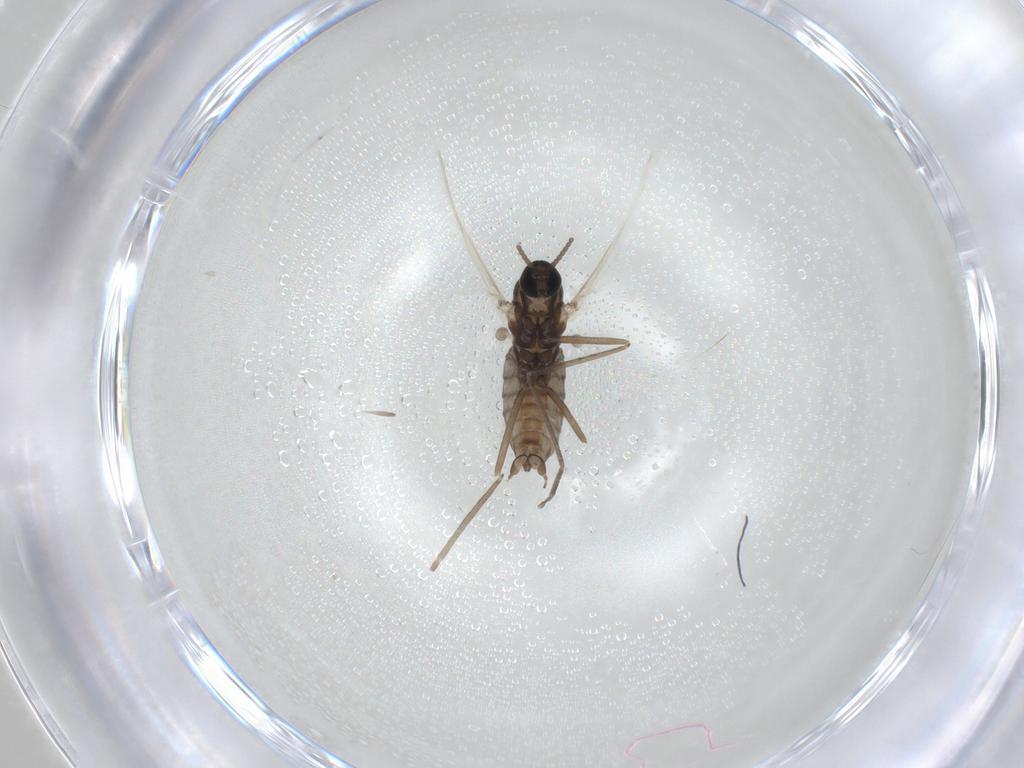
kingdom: Animalia
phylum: Arthropoda
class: Insecta
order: Diptera
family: Cecidomyiidae
